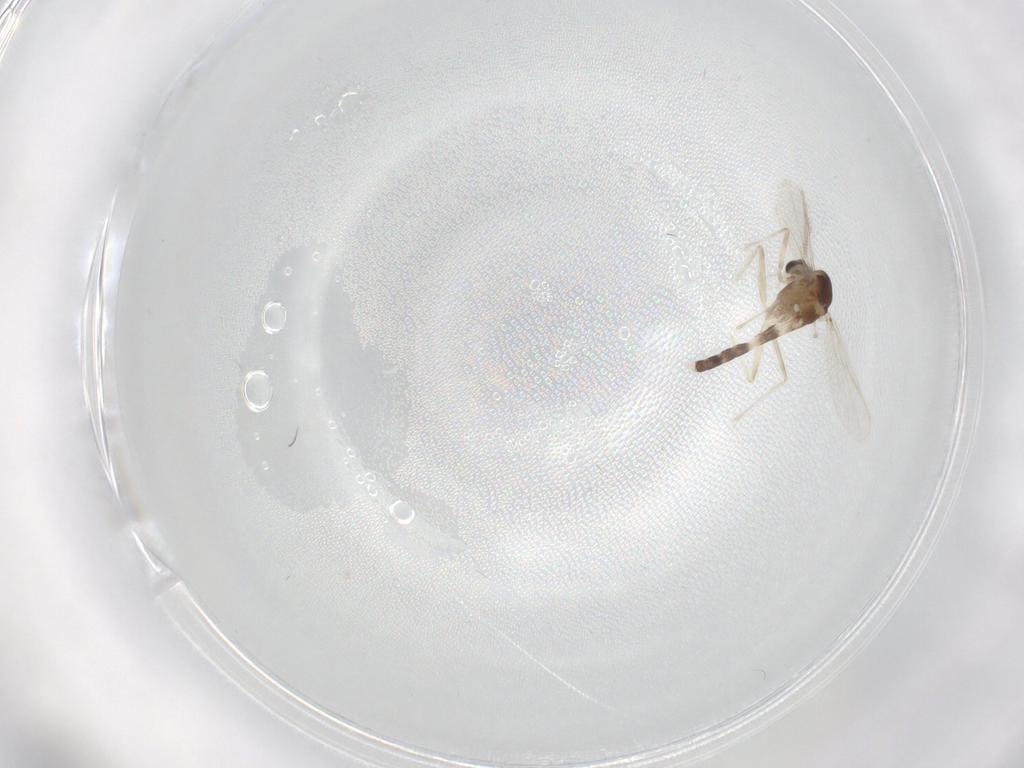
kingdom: Animalia
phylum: Arthropoda
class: Insecta
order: Diptera
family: Chironomidae
